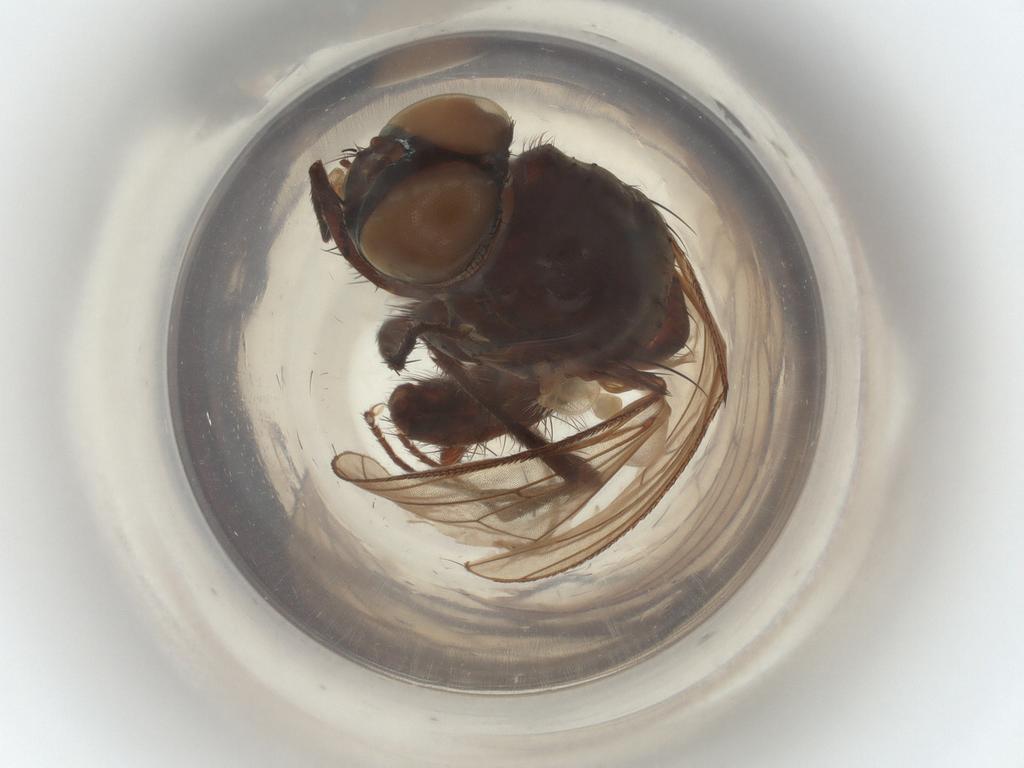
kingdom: Animalia
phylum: Arthropoda
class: Insecta
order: Diptera
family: Anthomyiidae
